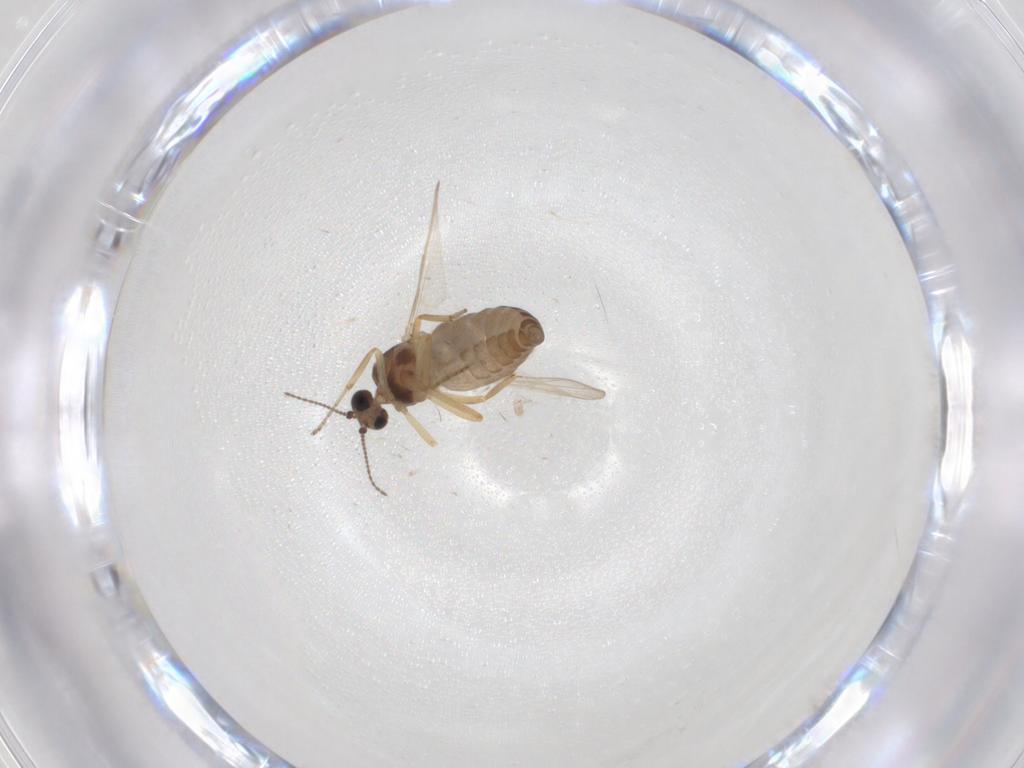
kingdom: Animalia
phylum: Arthropoda
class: Insecta
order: Diptera
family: Ceratopogonidae
